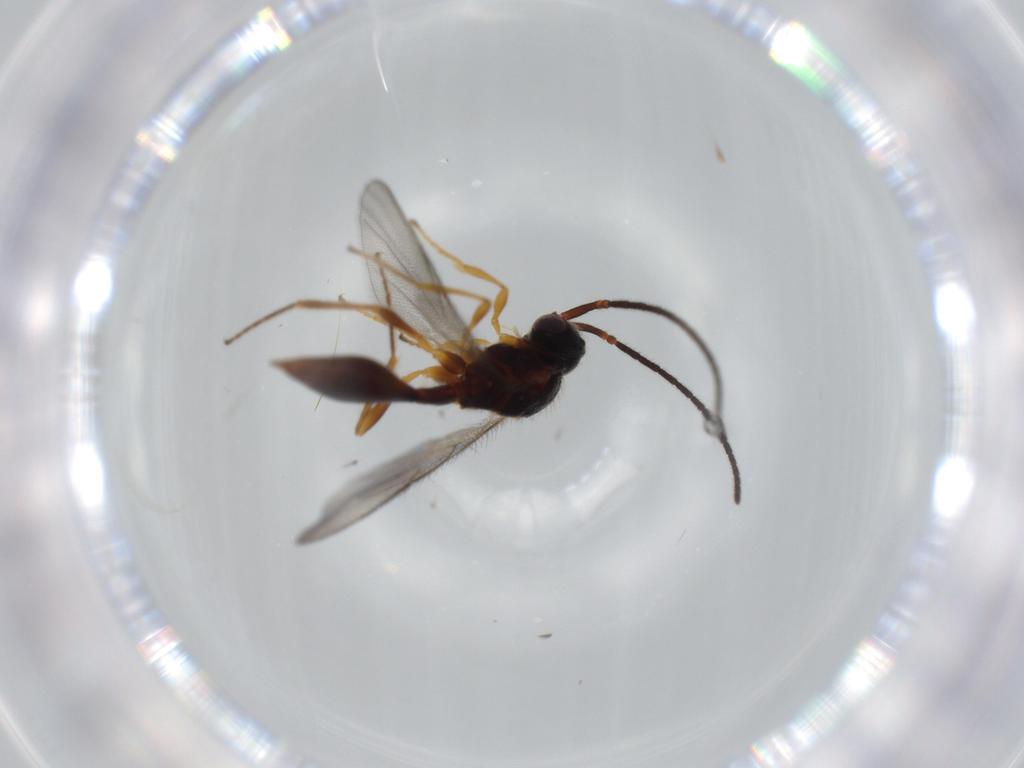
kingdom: Animalia
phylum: Arthropoda
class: Insecta
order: Hymenoptera
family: Diapriidae
